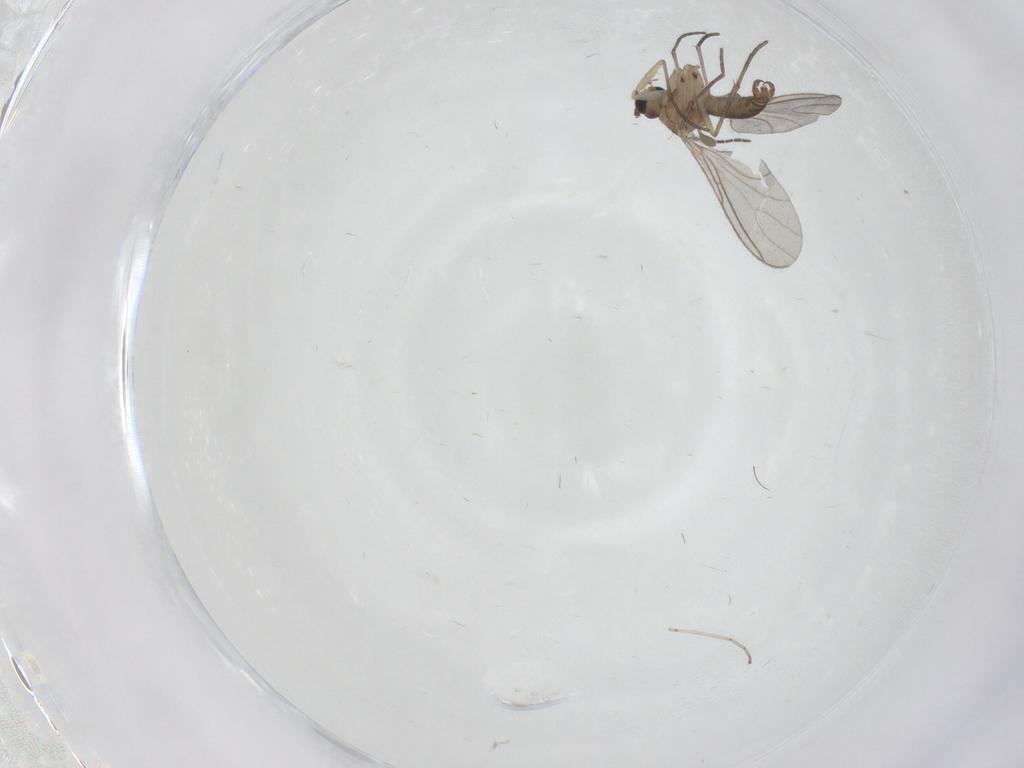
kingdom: Animalia
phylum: Arthropoda
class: Insecta
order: Diptera
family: Sciaridae
